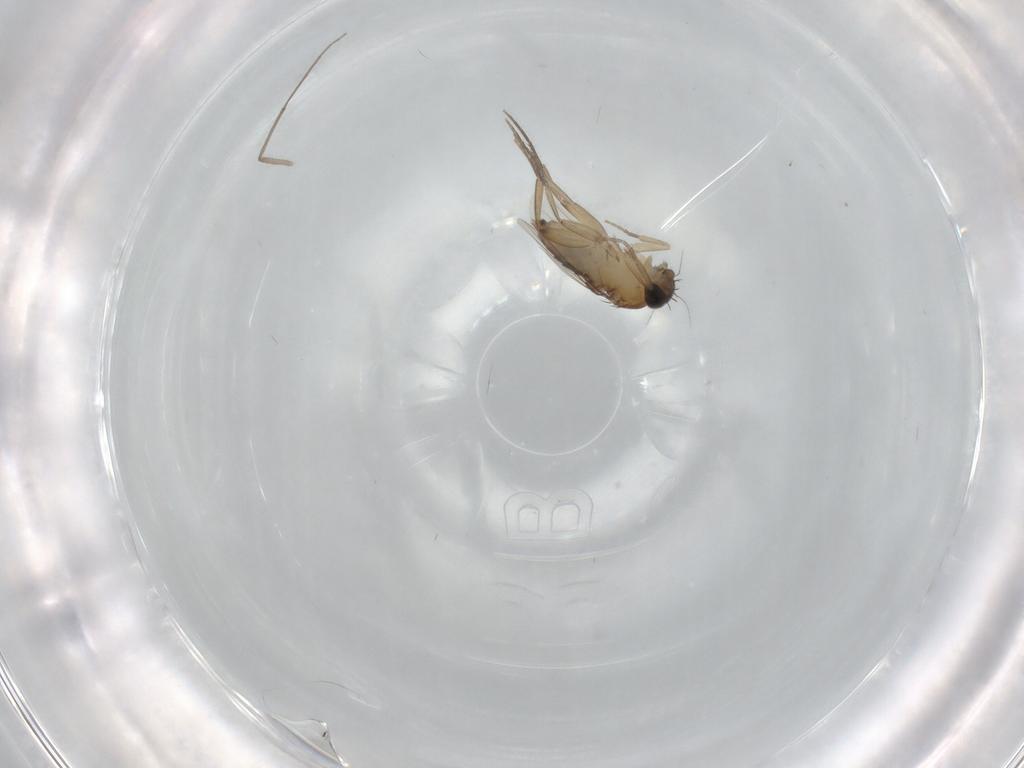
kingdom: Animalia
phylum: Arthropoda
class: Insecta
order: Diptera
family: Phoridae
